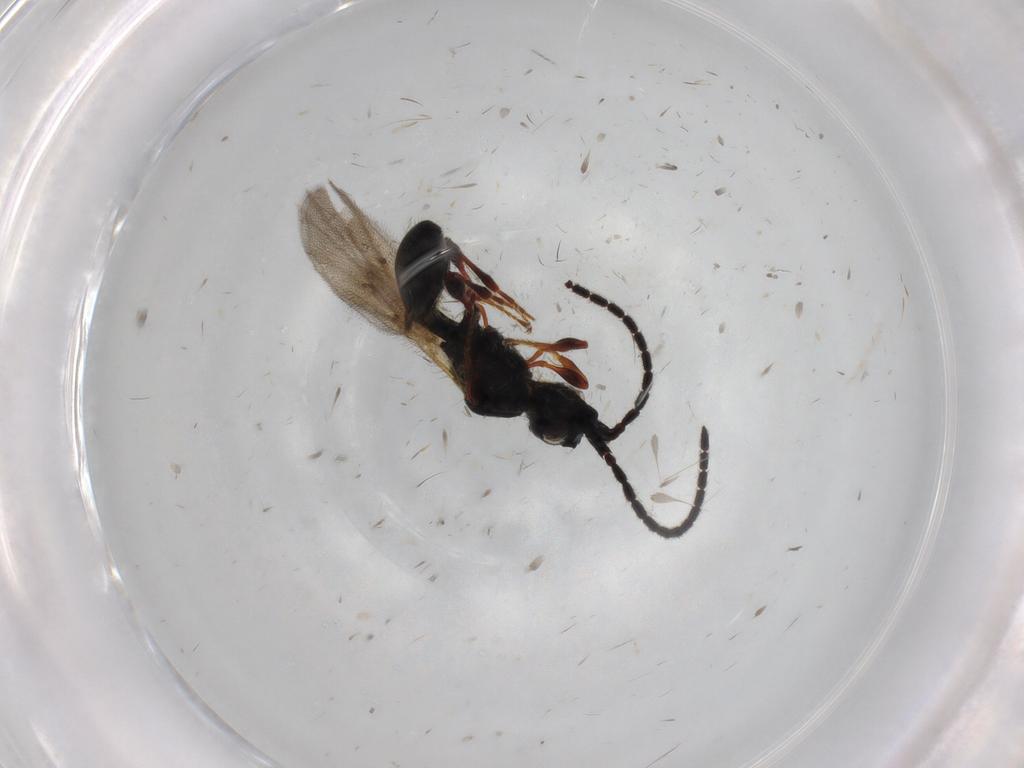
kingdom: Animalia
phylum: Arthropoda
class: Insecta
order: Hymenoptera
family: Diapriidae
